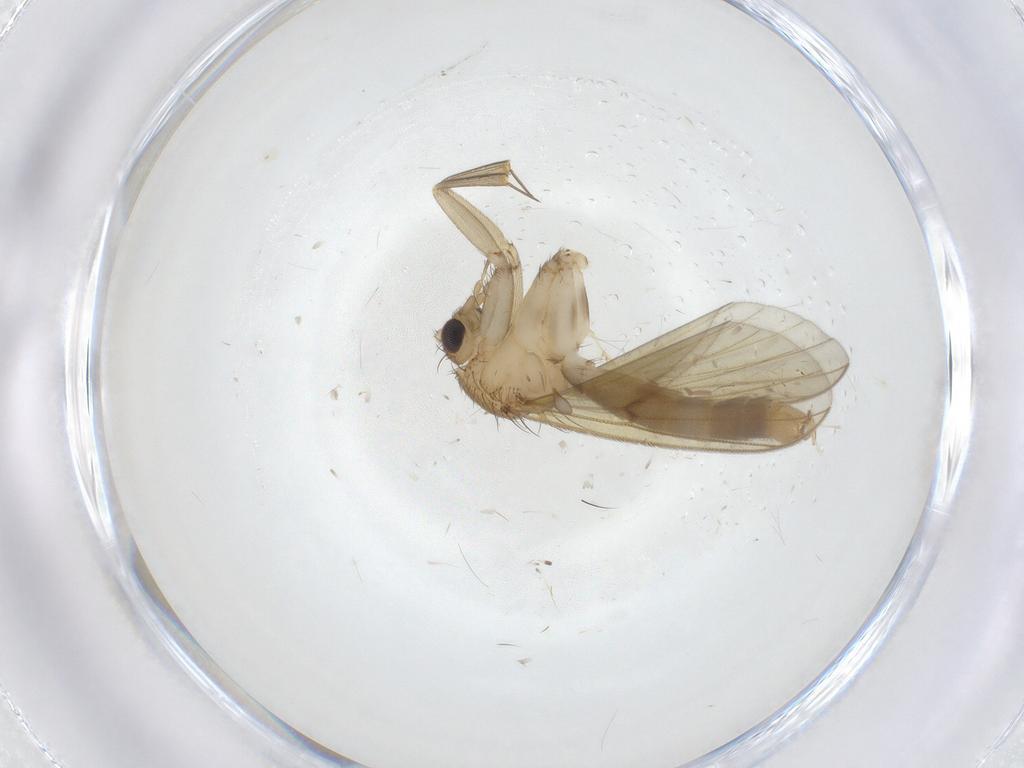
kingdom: Animalia
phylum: Arthropoda
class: Insecta
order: Diptera
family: Mycetophilidae
